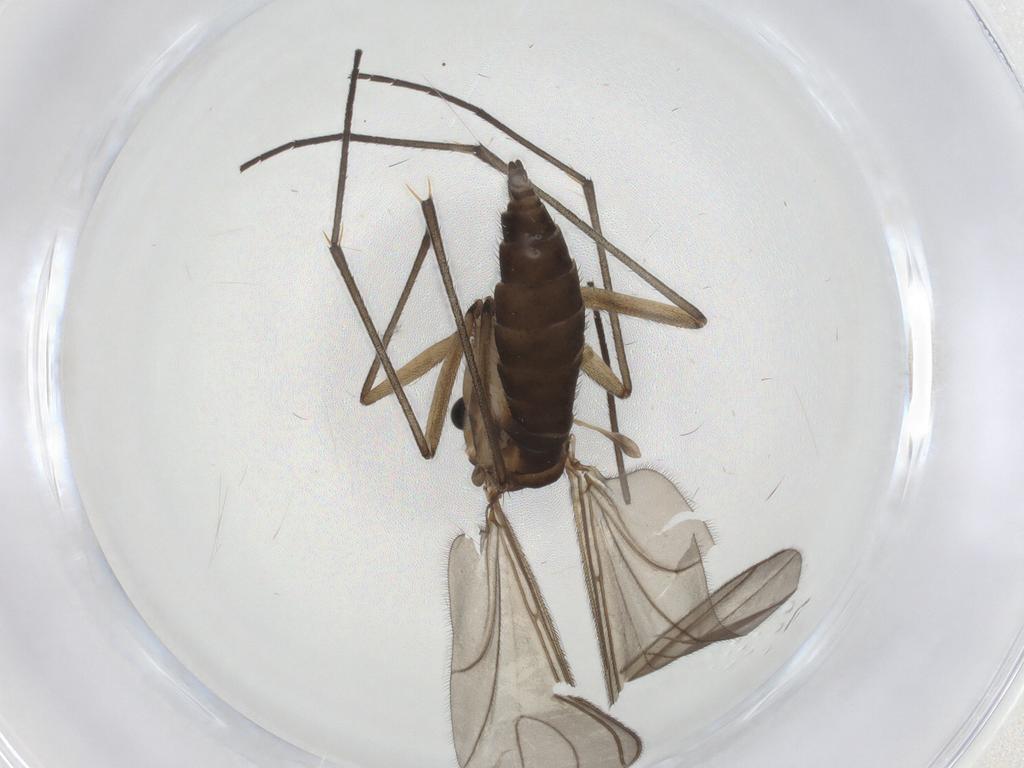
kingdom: Animalia
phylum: Arthropoda
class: Insecta
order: Diptera
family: Sciaridae
